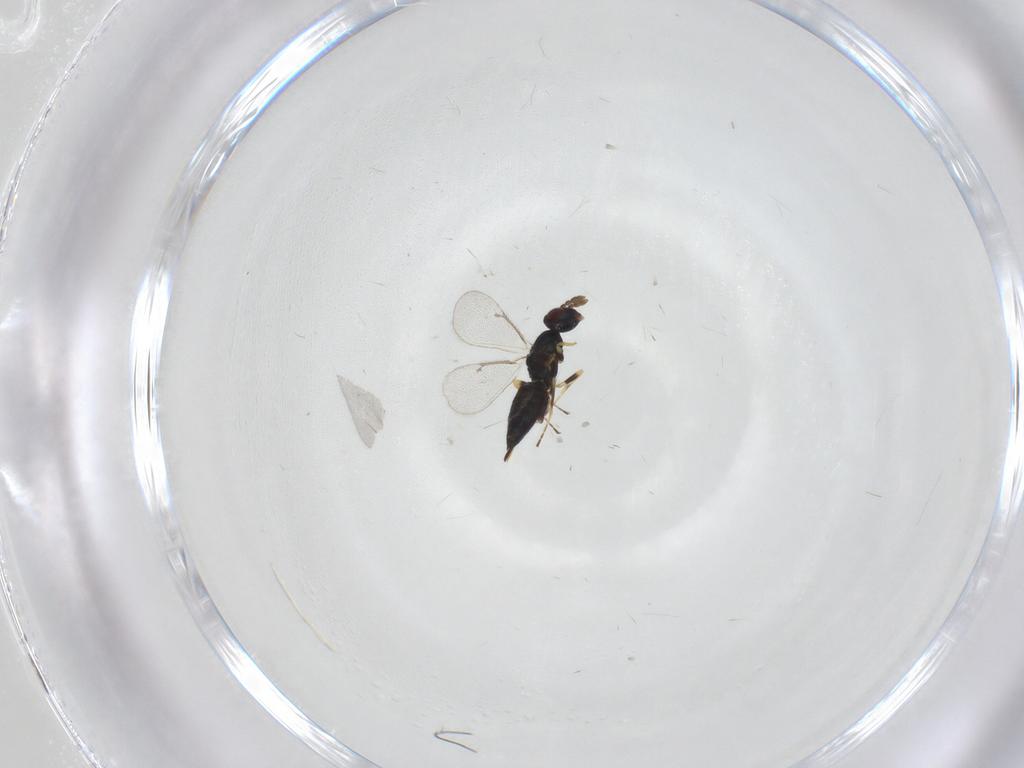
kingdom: Animalia
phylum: Arthropoda
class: Insecta
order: Hymenoptera
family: Eulophidae
